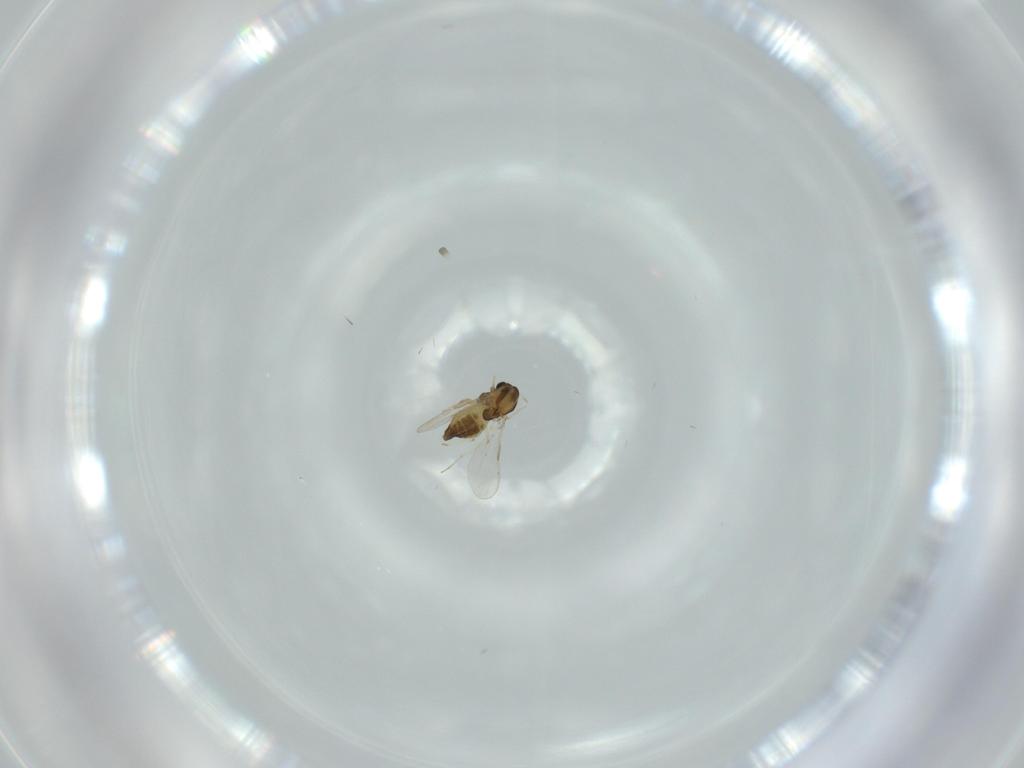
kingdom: Animalia
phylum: Arthropoda
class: Insecta
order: Diptera
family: Chironomidae
